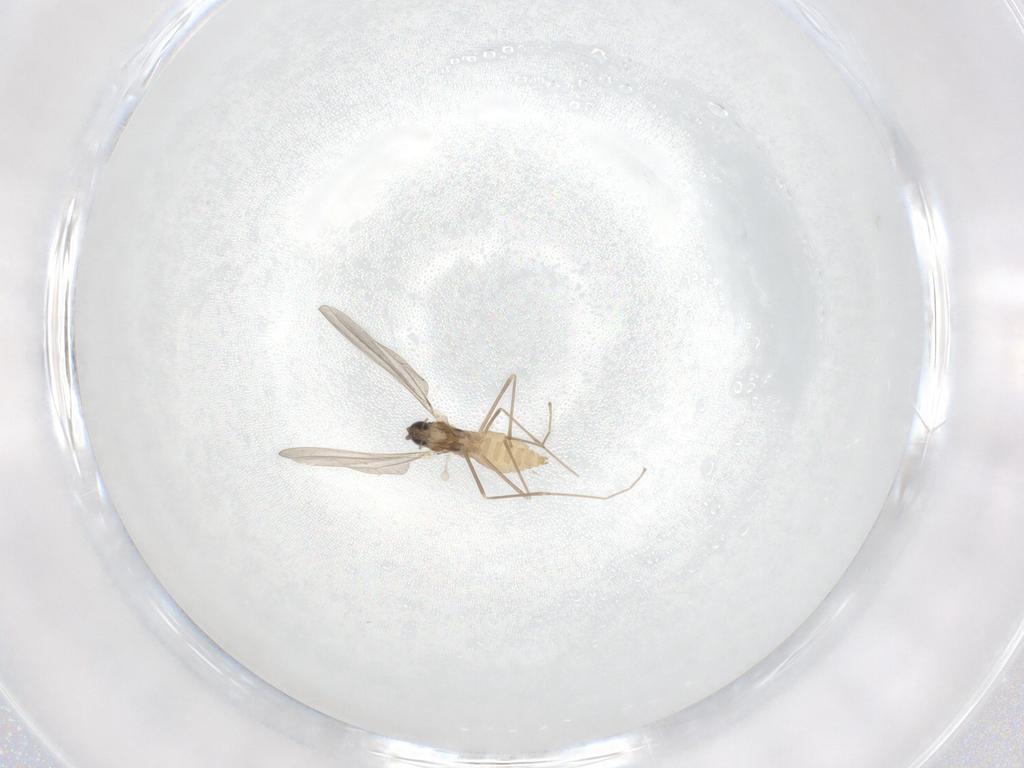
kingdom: Animalia
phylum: Arthropoda
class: Insecta
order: Diptera
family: Cecidomyiidae
